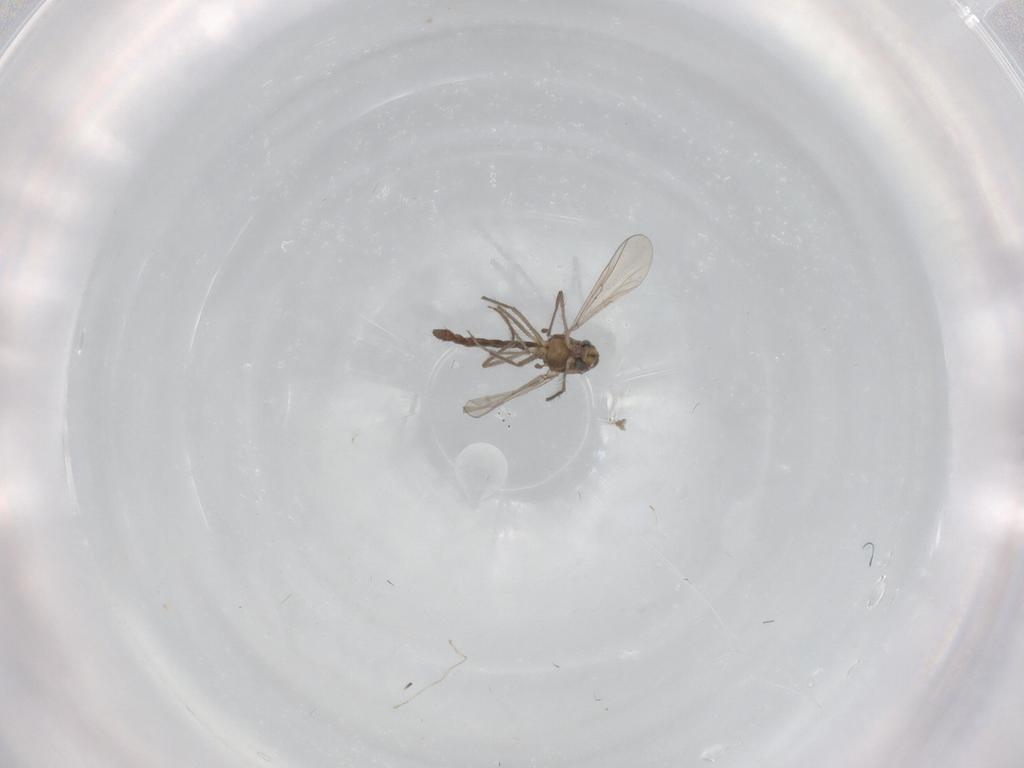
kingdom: Animalia
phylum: Arthropoda
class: Insecta
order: Diptera
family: Chironomidae
